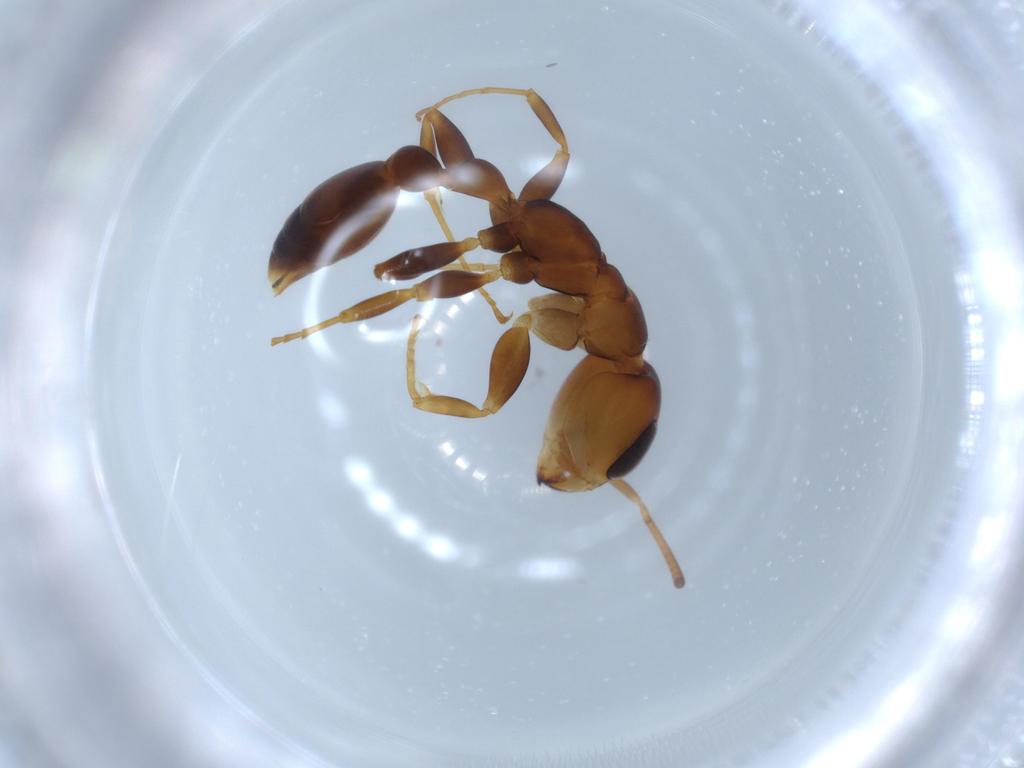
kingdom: Animalia
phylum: Arthropoda
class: Insecta
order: Hymenoptera
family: Formicidae
